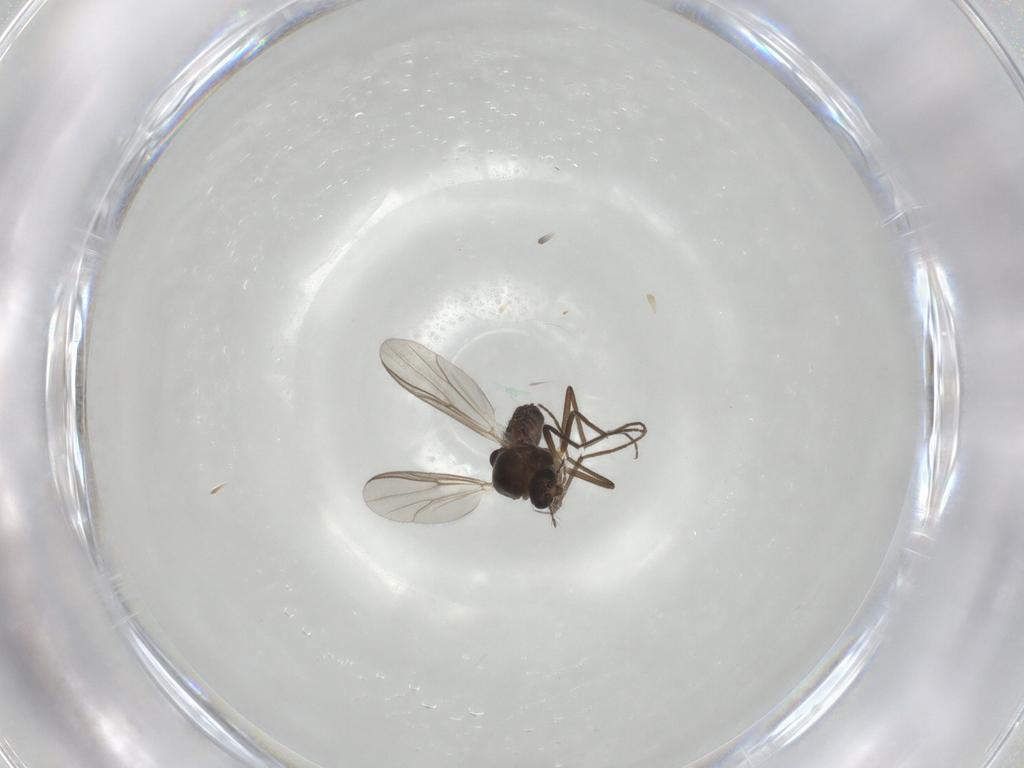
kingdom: Animalia
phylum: Arthropoda
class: Insecta
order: Diptera
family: Chironomidae
